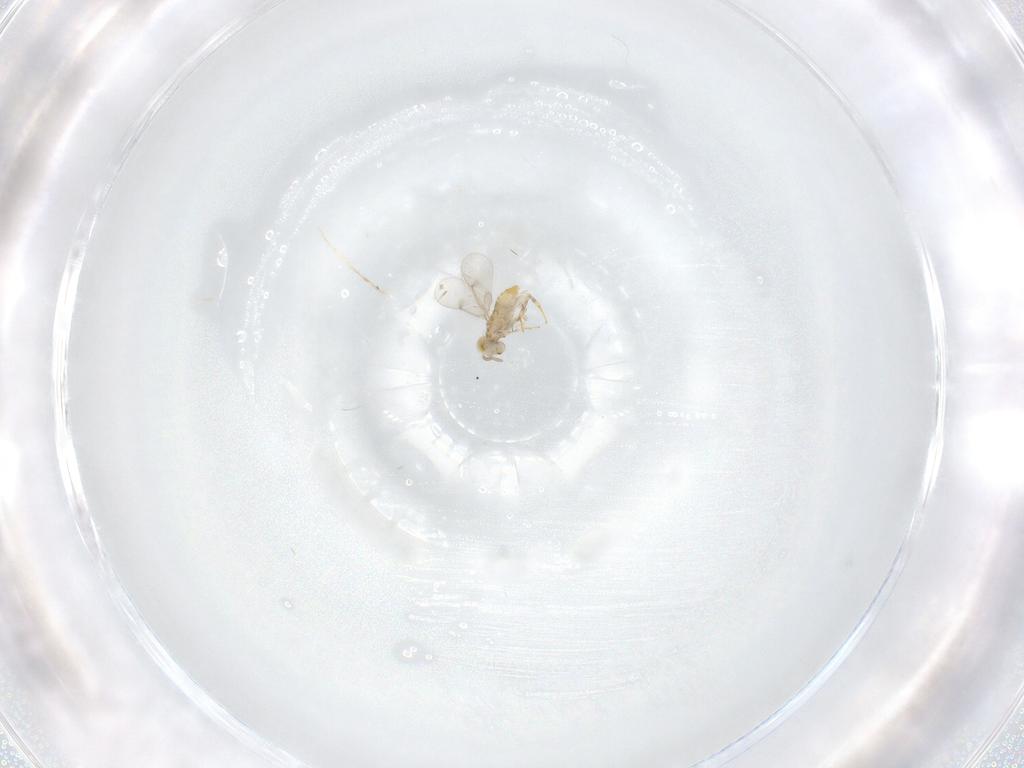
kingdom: Animalia
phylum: Arthropoda
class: Insecta
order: Hymenoptera
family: Aphelinidae
